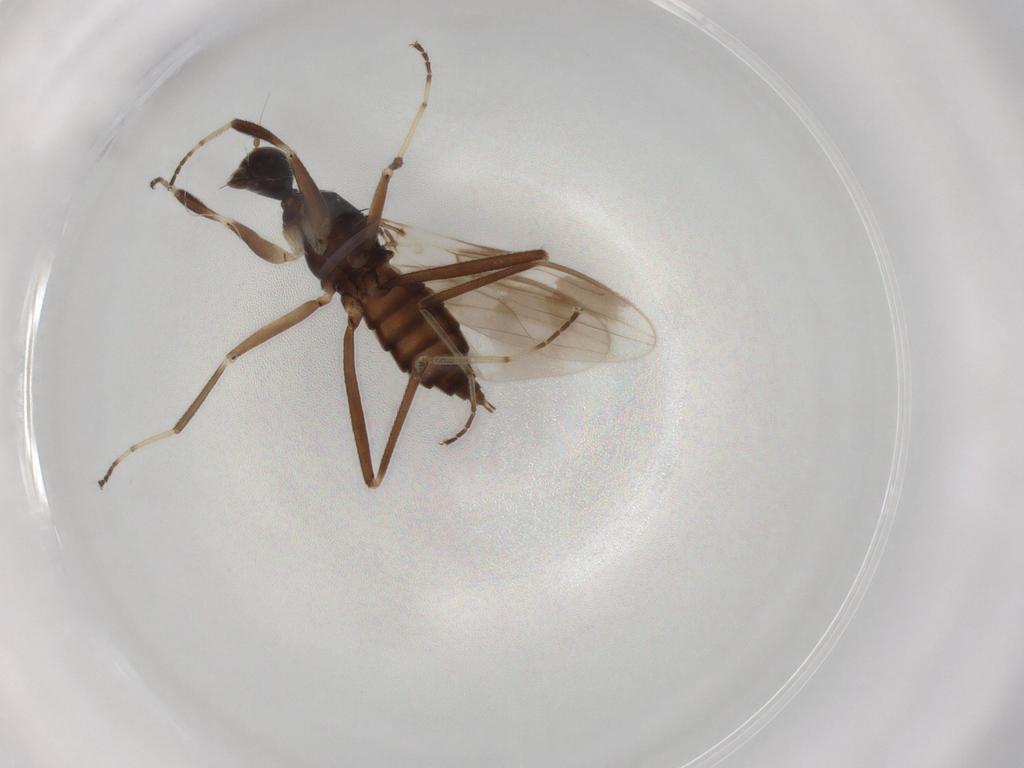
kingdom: Animalia
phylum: Arthropoda
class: Insecta
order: Diptera
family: Hybotidae
